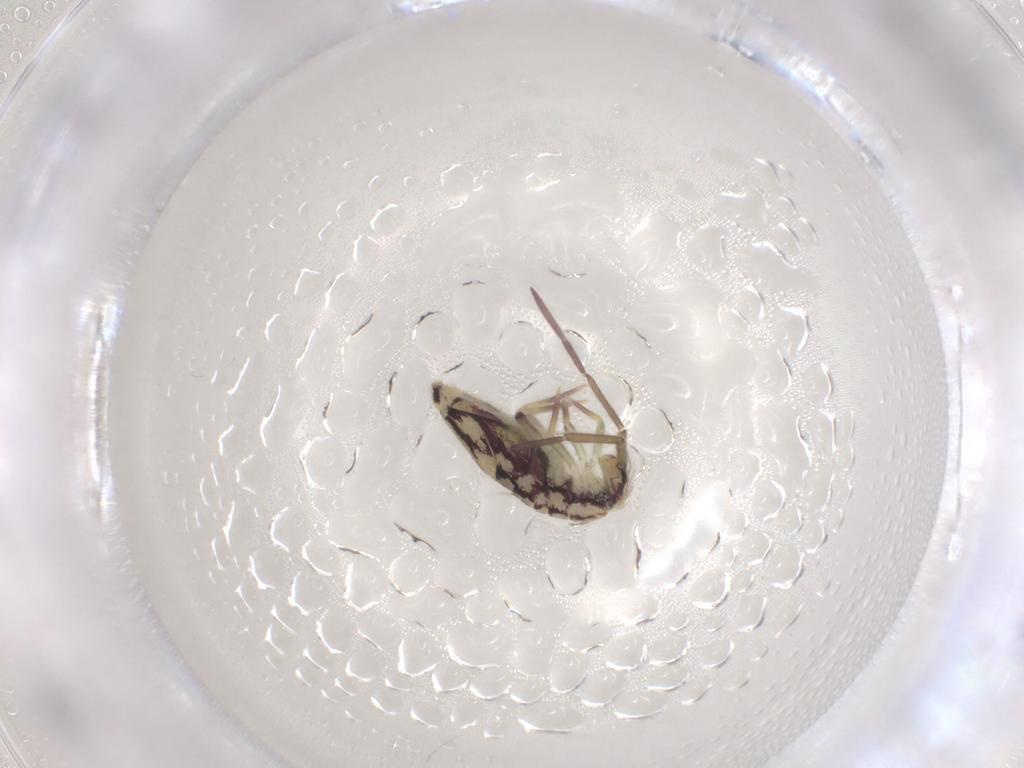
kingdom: Animalia
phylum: Arthropoda
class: Collembola
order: Entomobryomorpha
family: Entomobryidae
